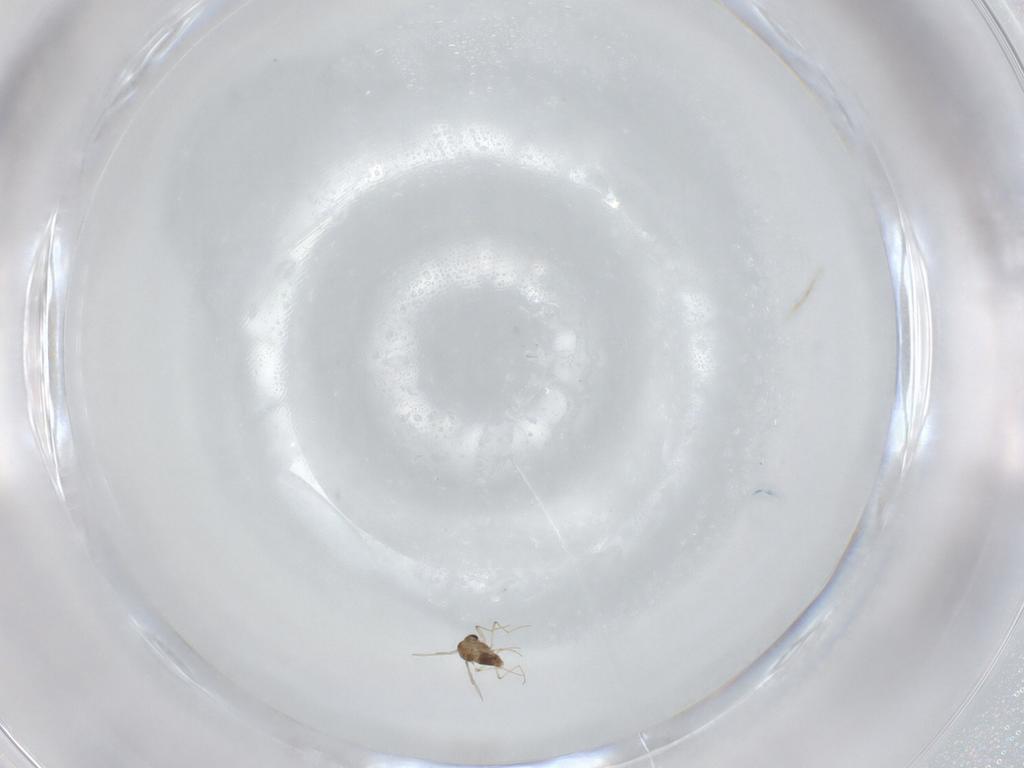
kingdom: Animalia
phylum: Arthropoda
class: Insecta
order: Diptera
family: Chironomidae
